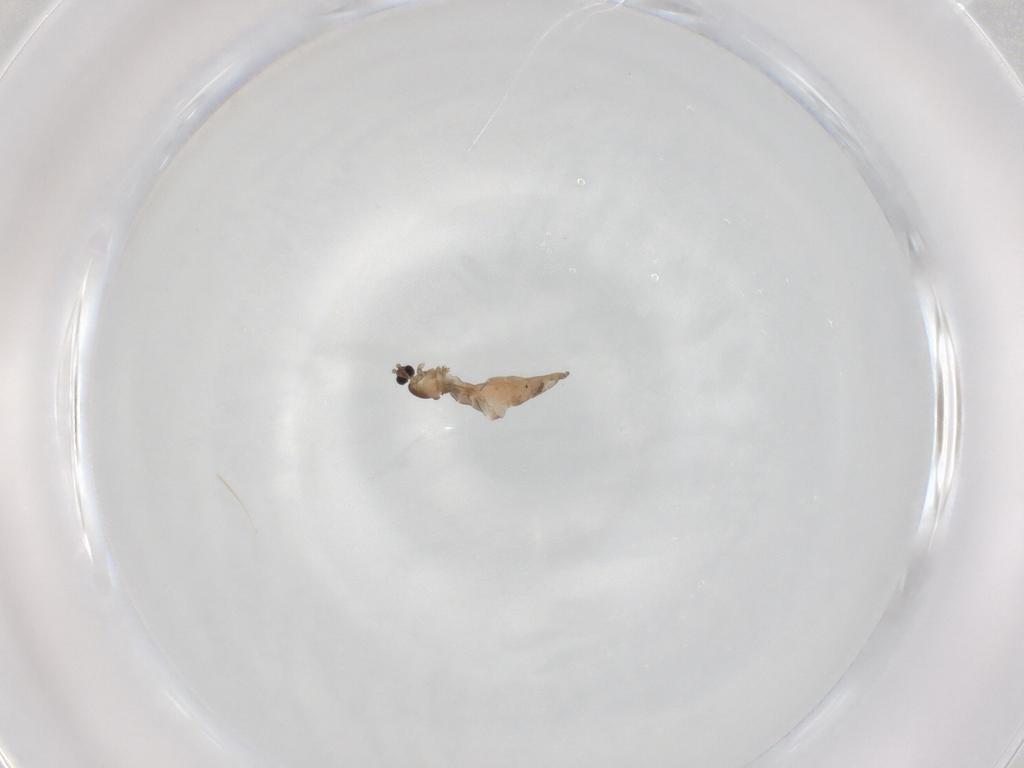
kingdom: Animalia
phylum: Arthropoda
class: Insecta
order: Diptera
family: Cecidomyiidae
